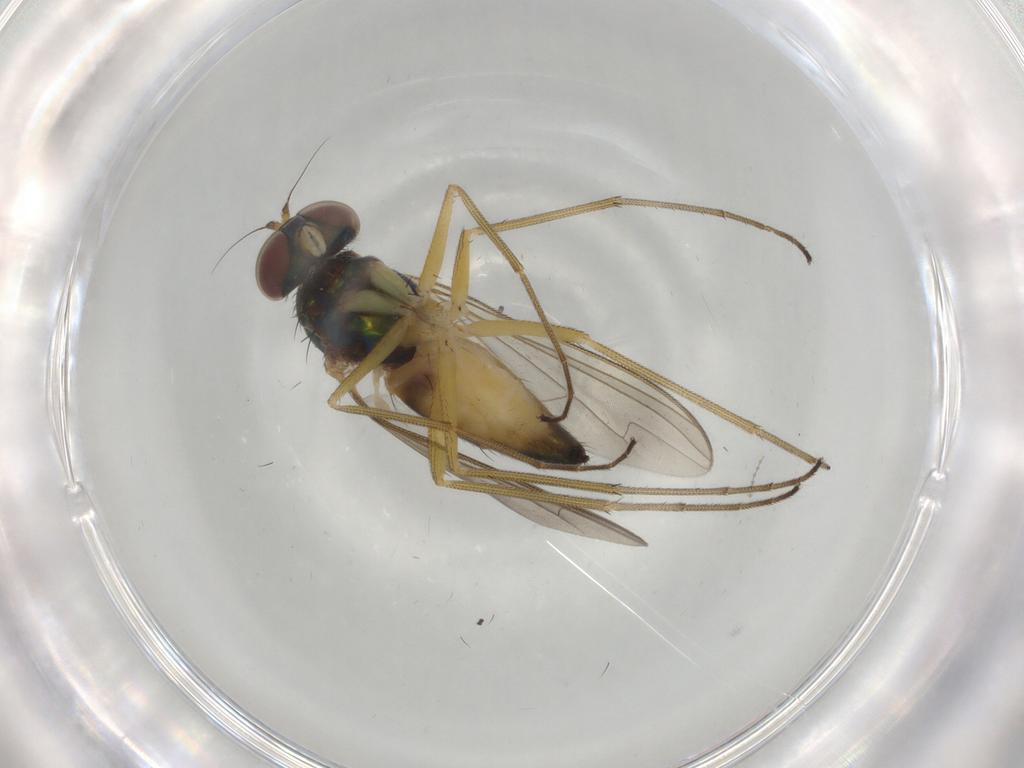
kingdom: Animalia
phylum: Arthropoda
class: Insecta
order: Diptera
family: Dolichopodidae
